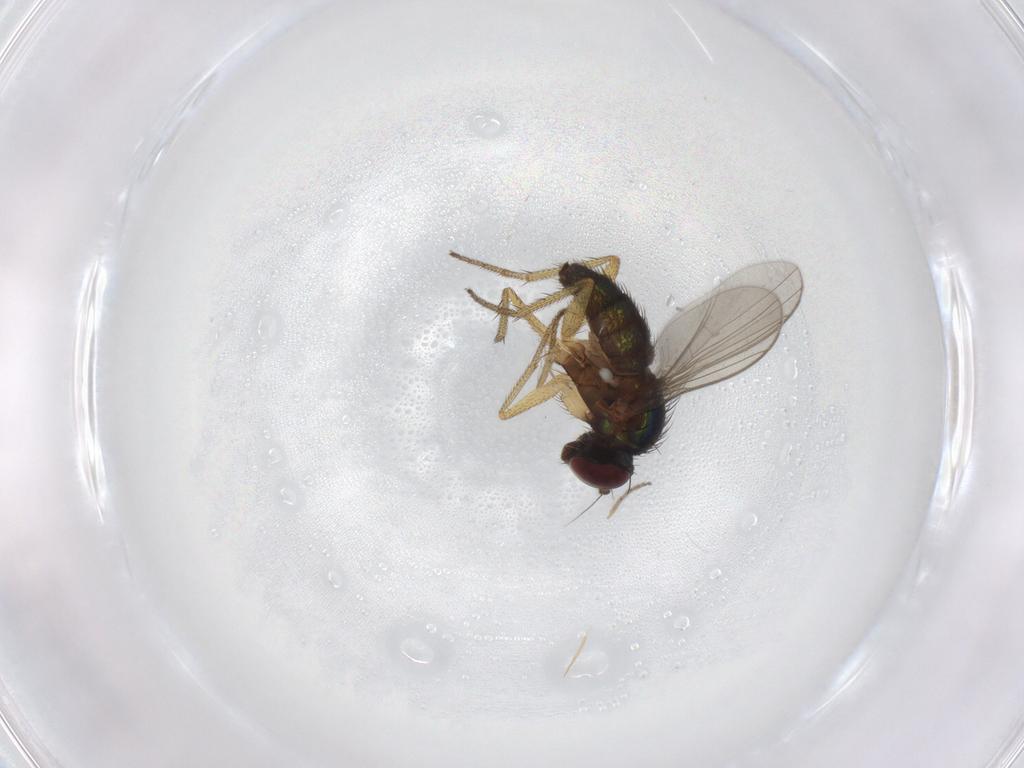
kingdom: Animalia
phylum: Arthropoda
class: Insecta
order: Diptera
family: Dolichopodidae
